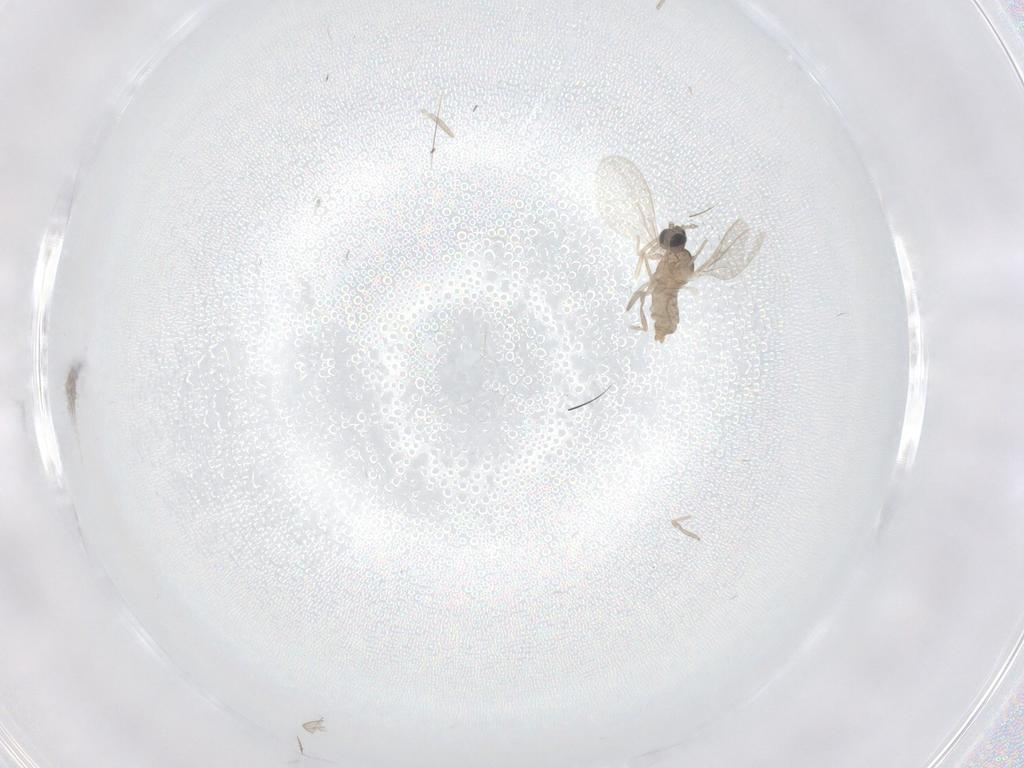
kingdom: Animalia
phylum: Arthropoda
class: Insecta
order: Diptera
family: Psychodidae
